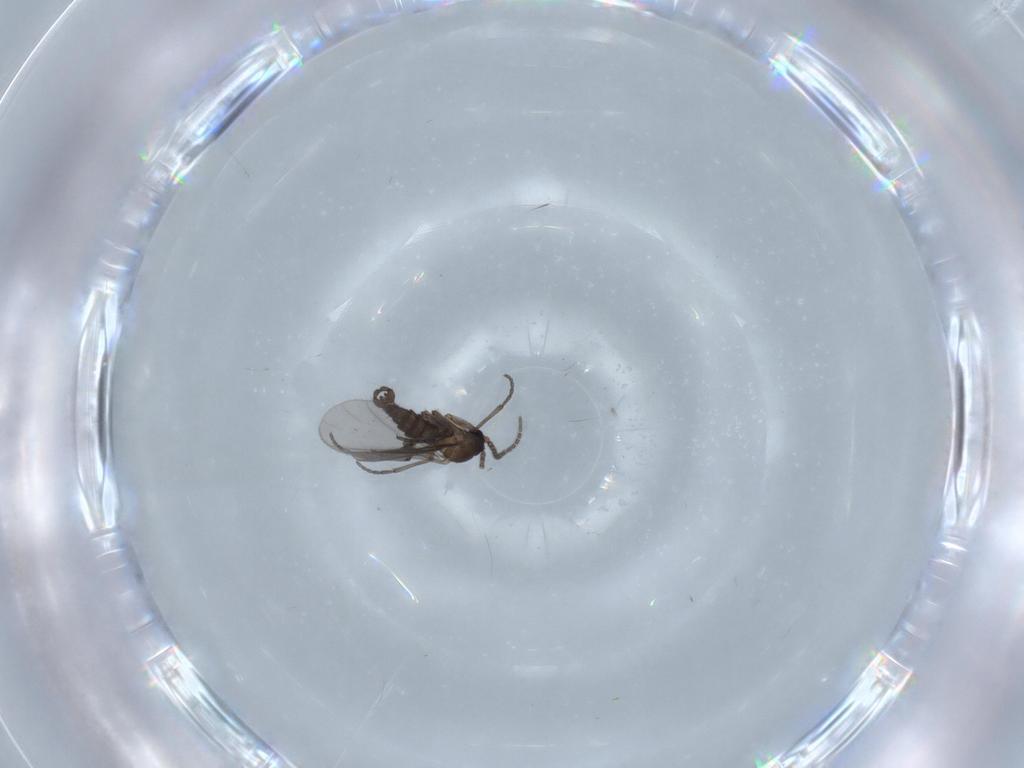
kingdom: Animalia
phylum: Arthropoda
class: Insecta
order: Diptera
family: Sciaridae
